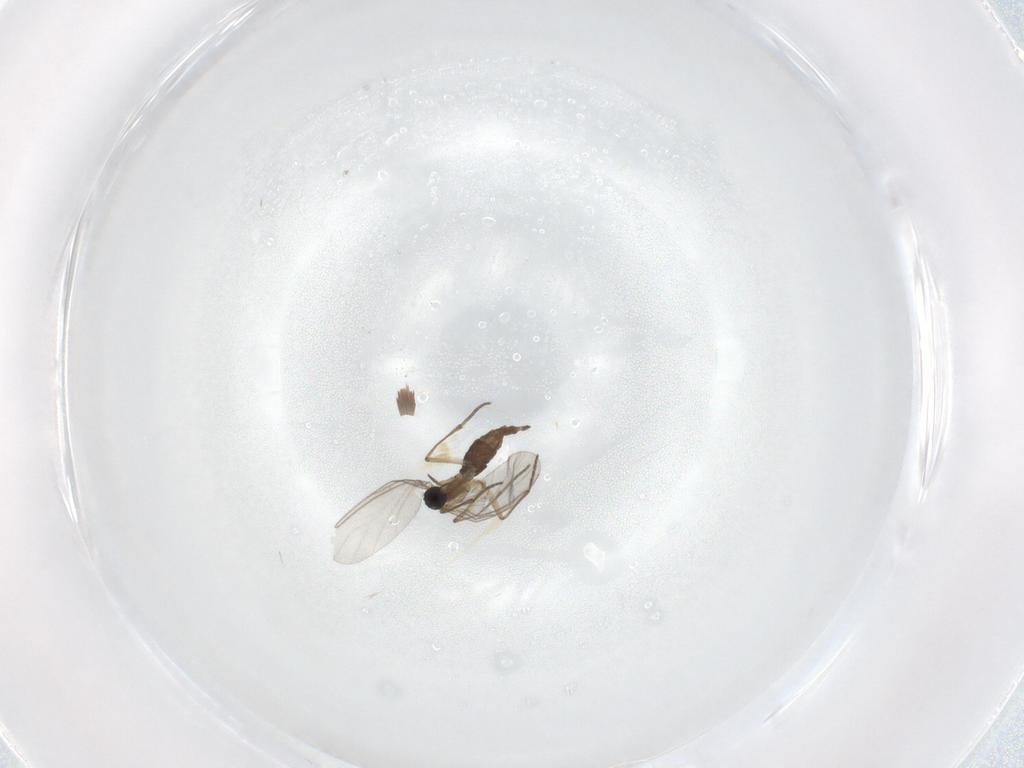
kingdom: Animalia
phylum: Arthropoda
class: Insecta
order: Diptera
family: Sciaridae
